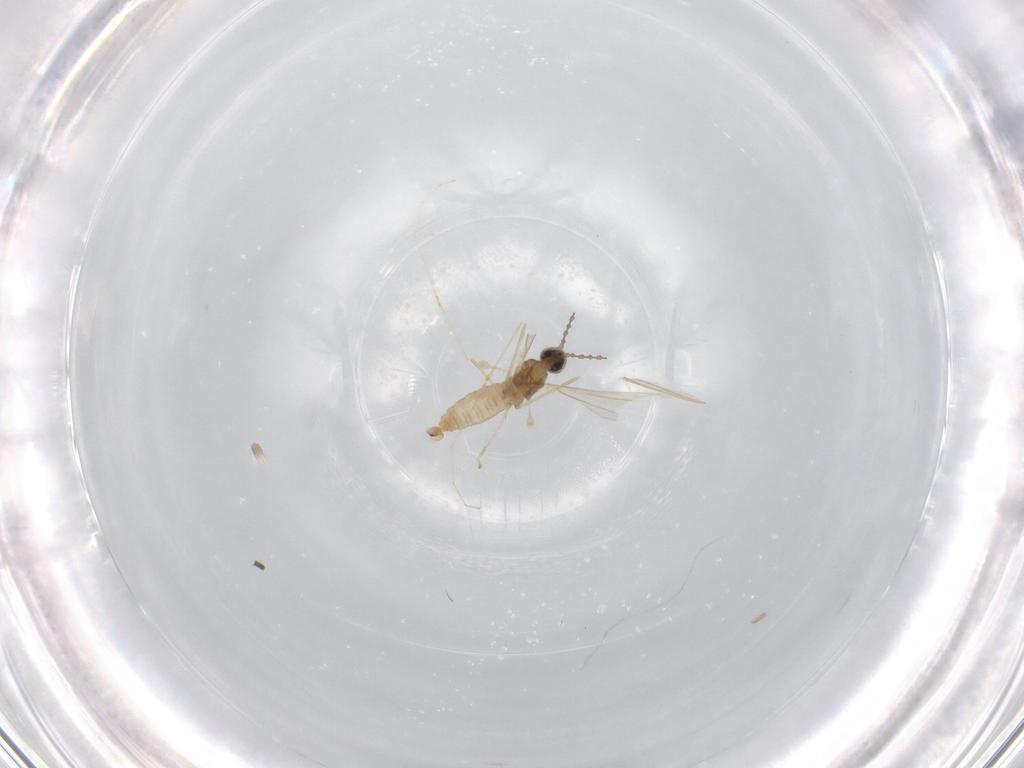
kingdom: Animalia
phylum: Arthropoda
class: Insecta
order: Diptera
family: Cecidomyiidae
